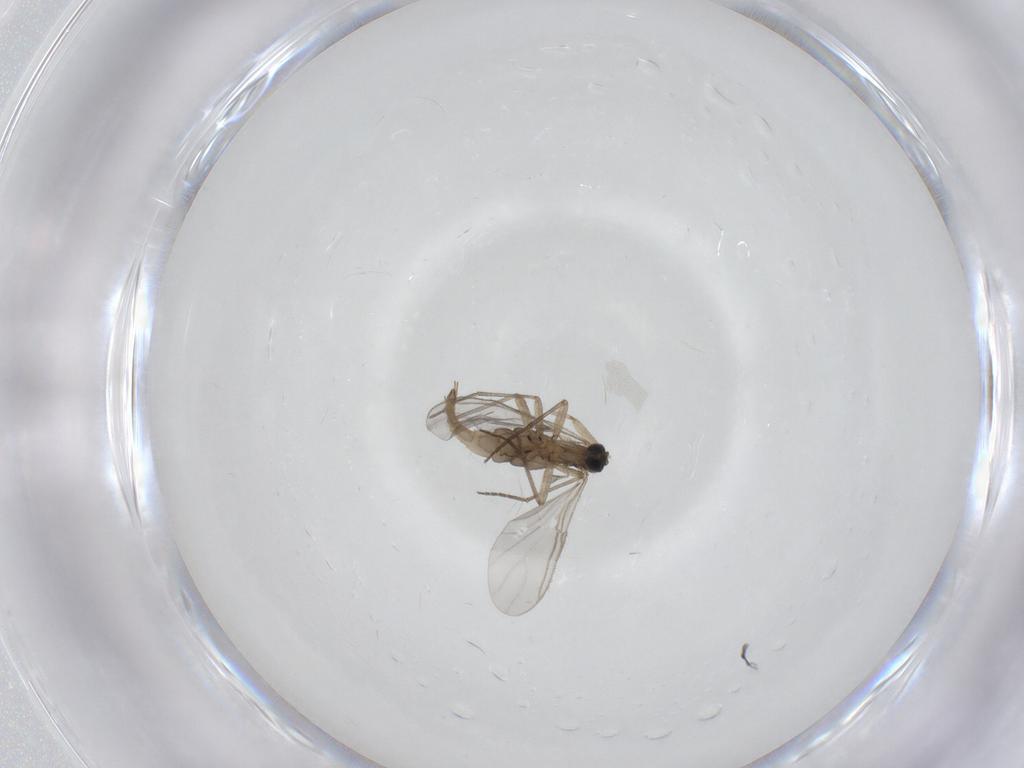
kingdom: Animalia
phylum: Arthropoda
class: Insecta
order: Diptera
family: Sciaridae
